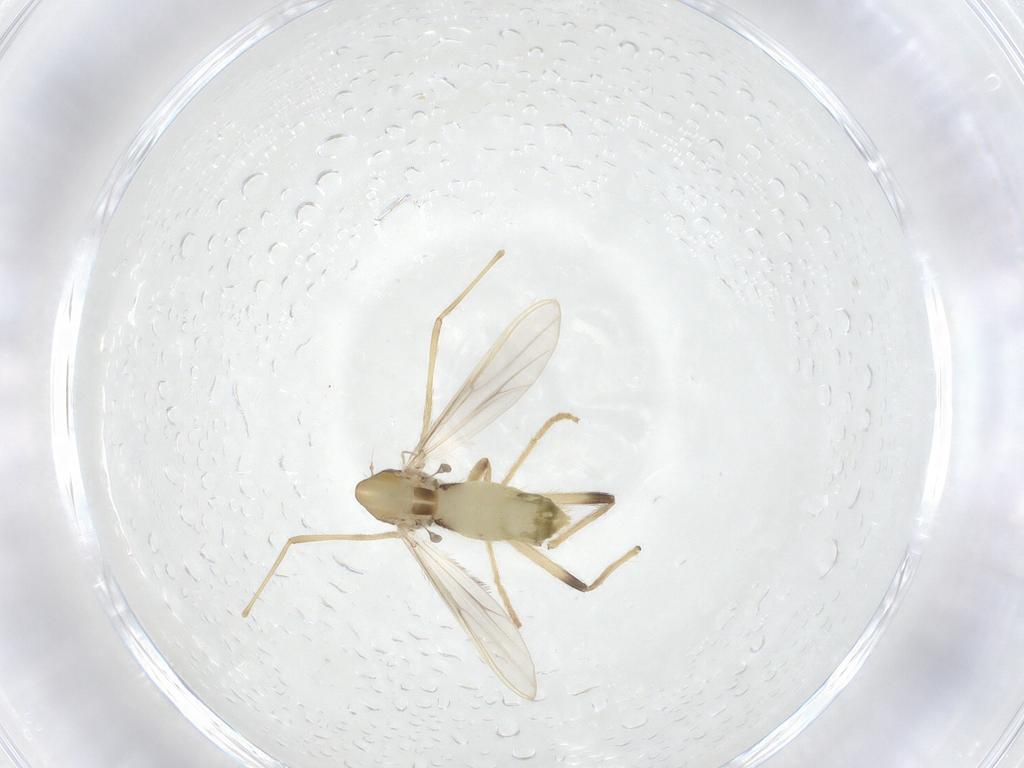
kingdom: Animalia
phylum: Arthropoda
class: Insecta
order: Diptera
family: Chironomidae
